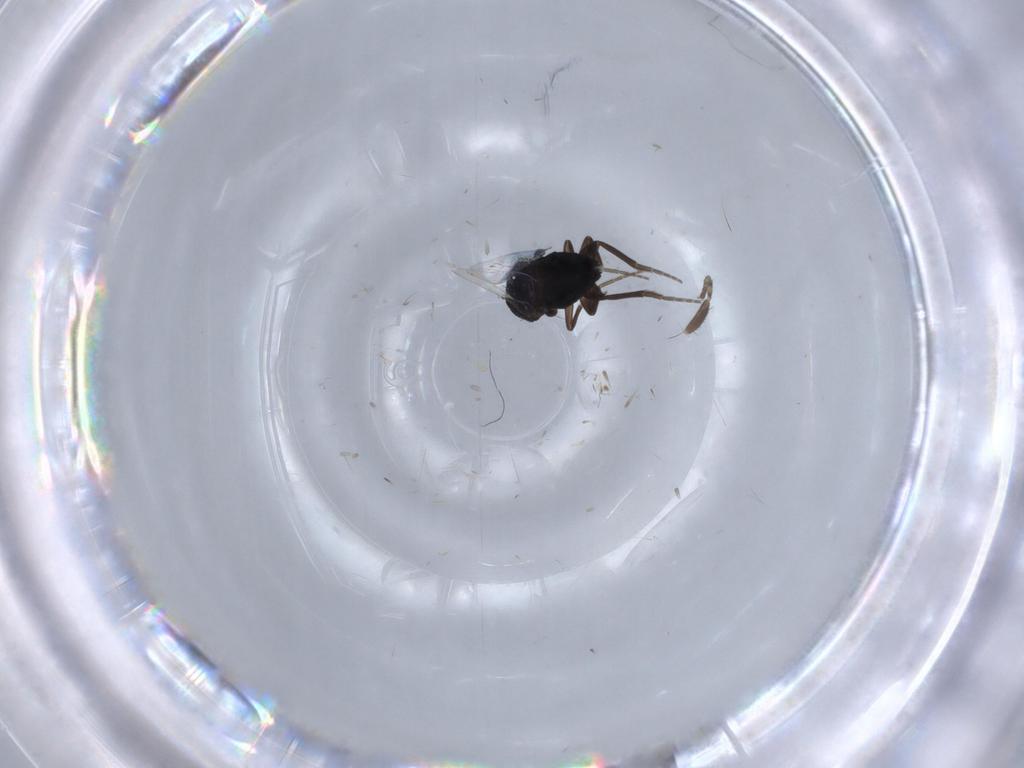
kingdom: Animalia
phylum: Arthropoda
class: Insecta
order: Diptera
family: Phoridae
